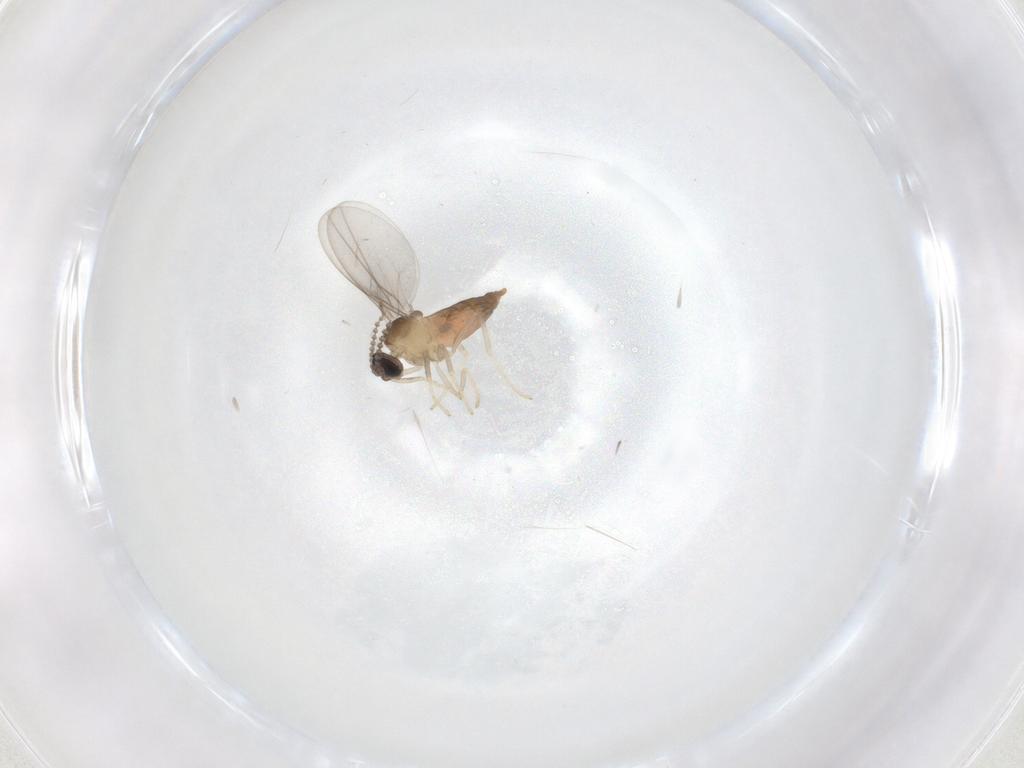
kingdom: Animalia
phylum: Arthropoda
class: Insecta
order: Diptera
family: Cecidomyiidae
